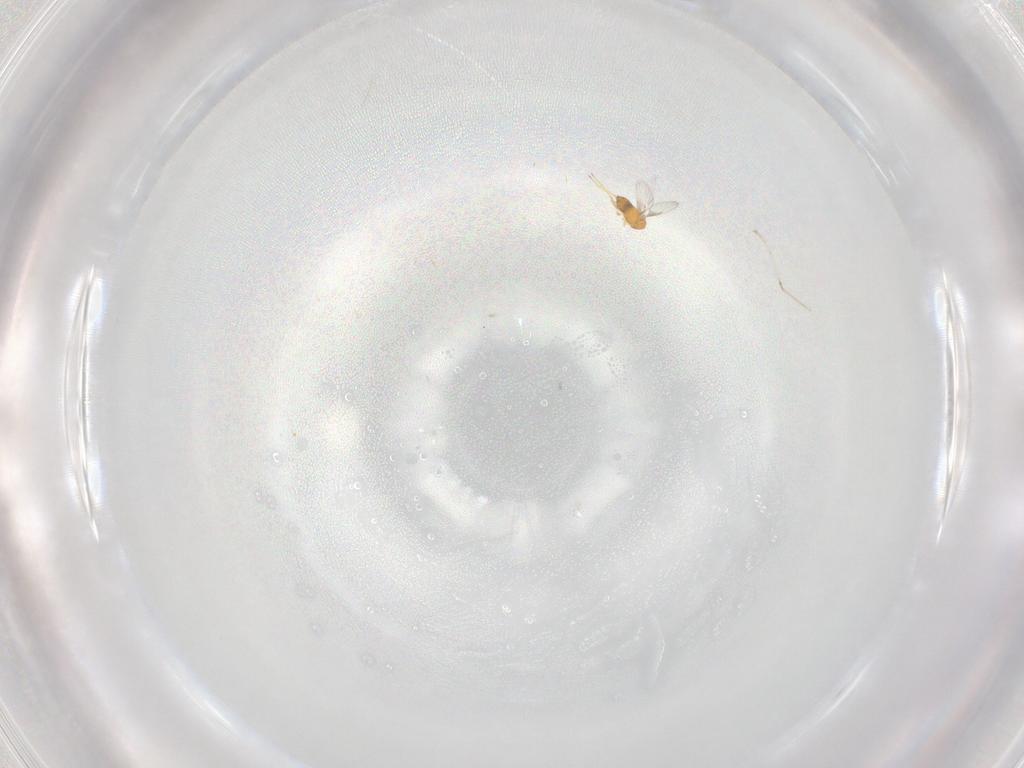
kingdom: Animalia
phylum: Arthropoda
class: Insecta
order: Hymenoptera
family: Trichogrammatidae
